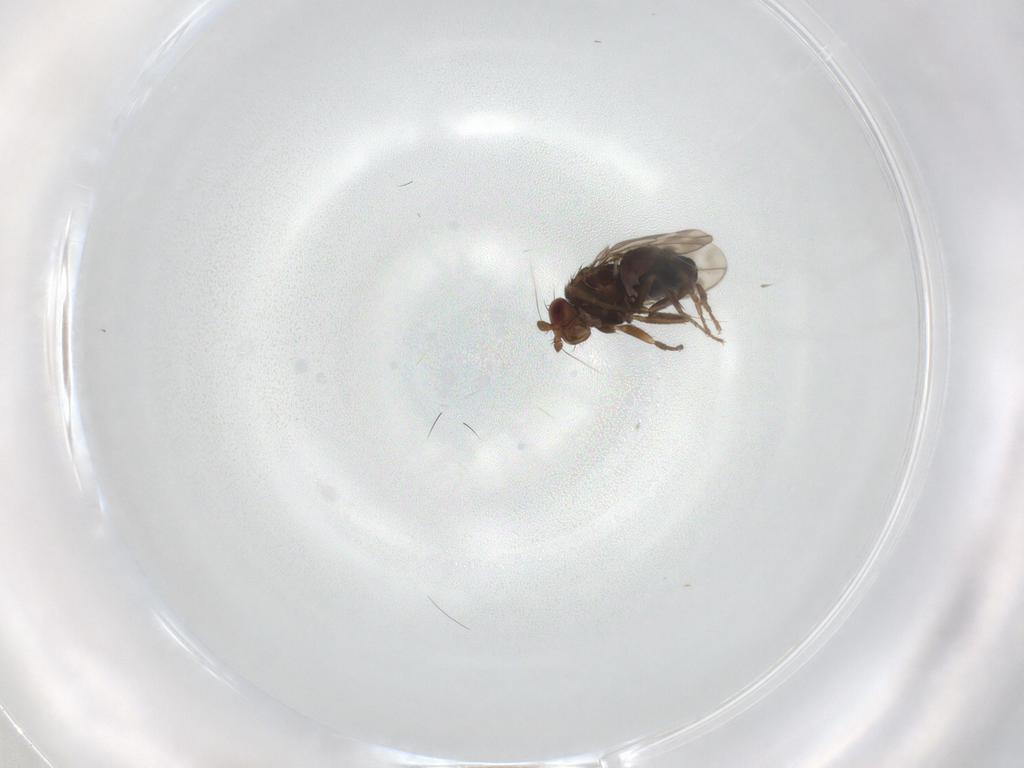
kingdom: Animalia
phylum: Arthropoda
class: Insecta
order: Diptera
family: Sphaeroceridae
